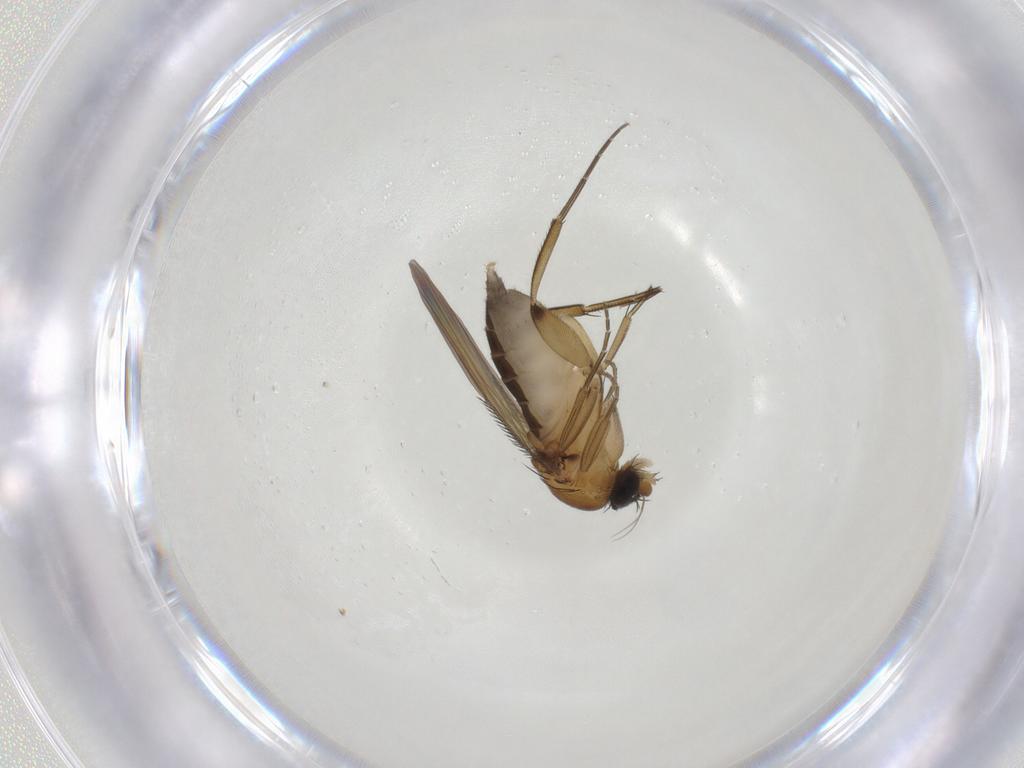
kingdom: Animalia
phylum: Arthropoda
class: Insecta
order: Diptera
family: Phoridae
